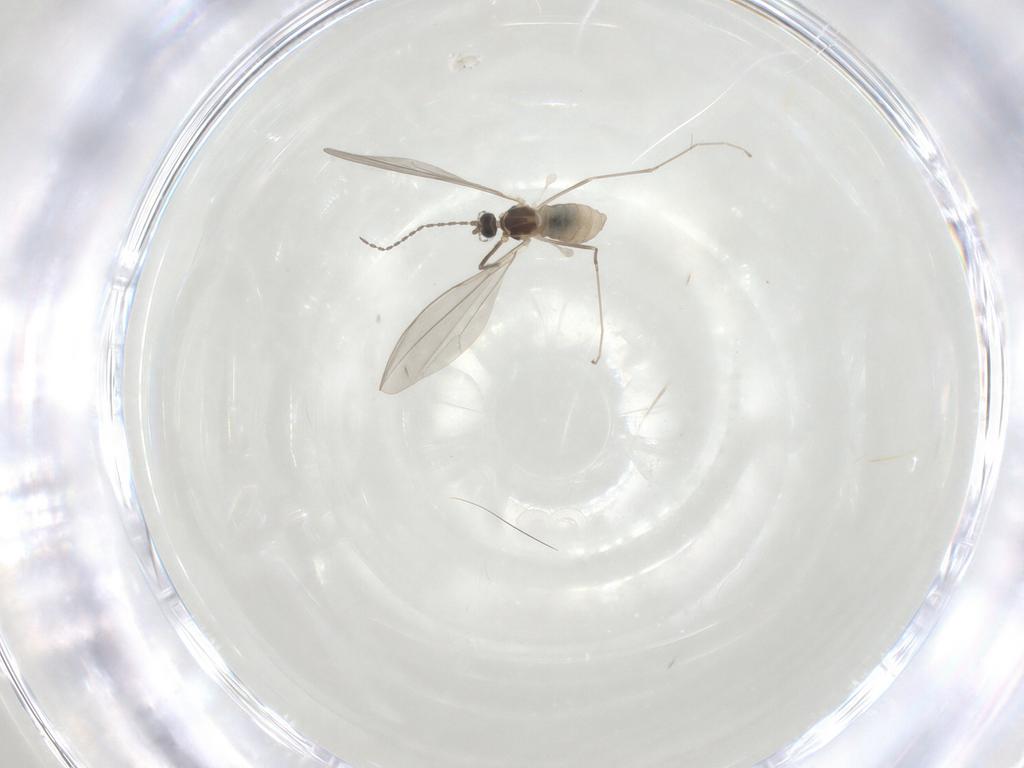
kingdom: Animalia
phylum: Arthropoda
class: Insecta
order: Diptera
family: Cecidomyiidae
